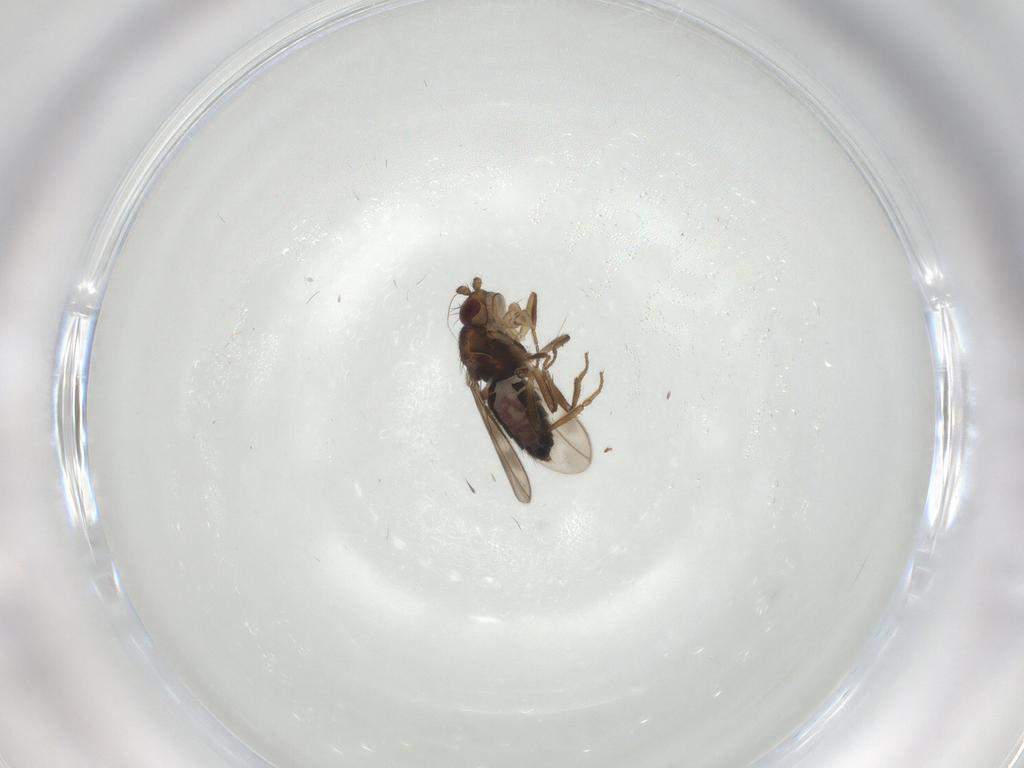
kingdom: Animalia
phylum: Arthropoda
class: Insecta
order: Diptera
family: Sphaeroceridae
